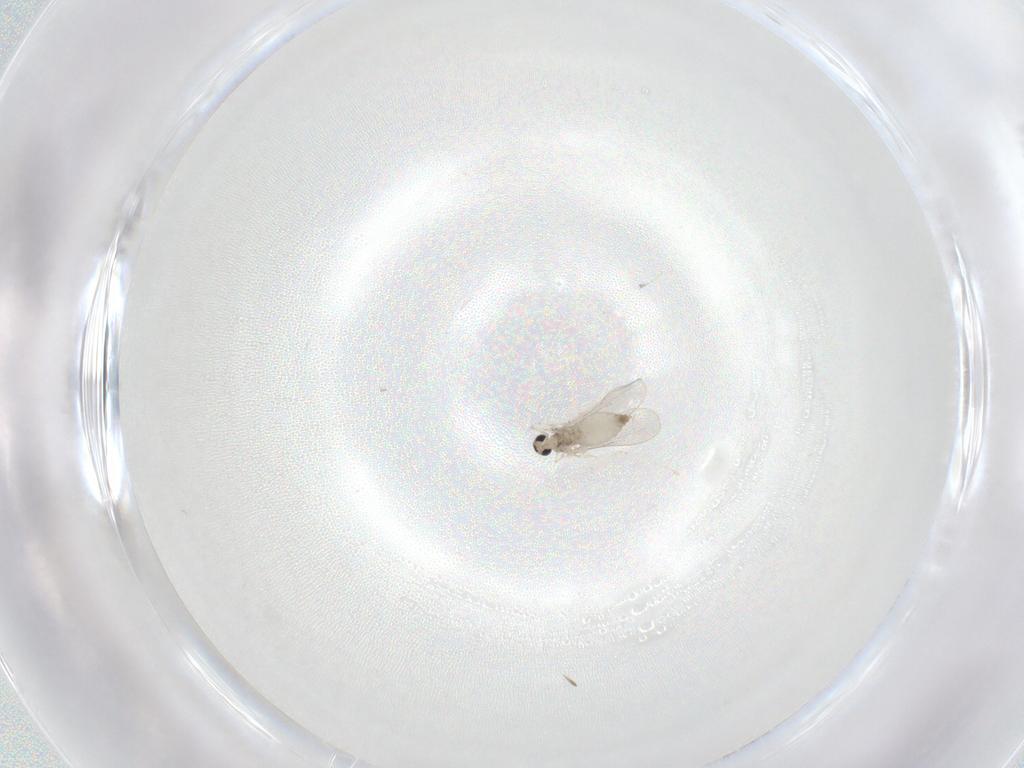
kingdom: Animalia
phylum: Arthropoda
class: Insecta
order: Diptera
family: Cecidomyiidae
